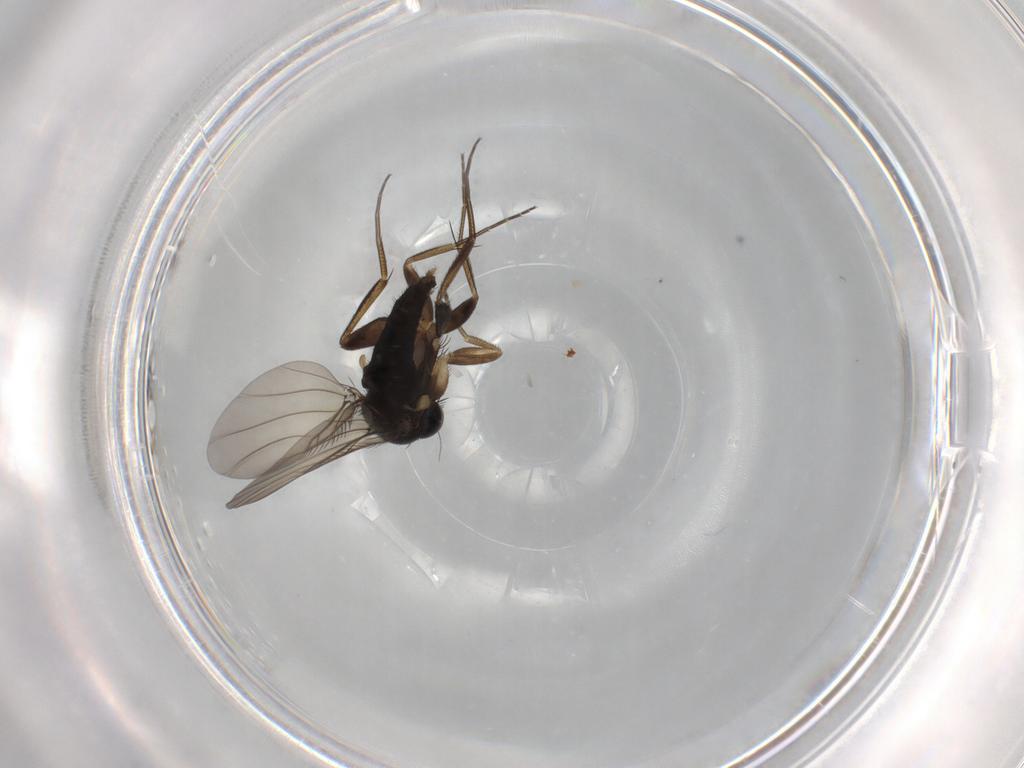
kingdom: Animalia
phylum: Arthropoda
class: Insecta
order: Diptera
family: Phoridae
